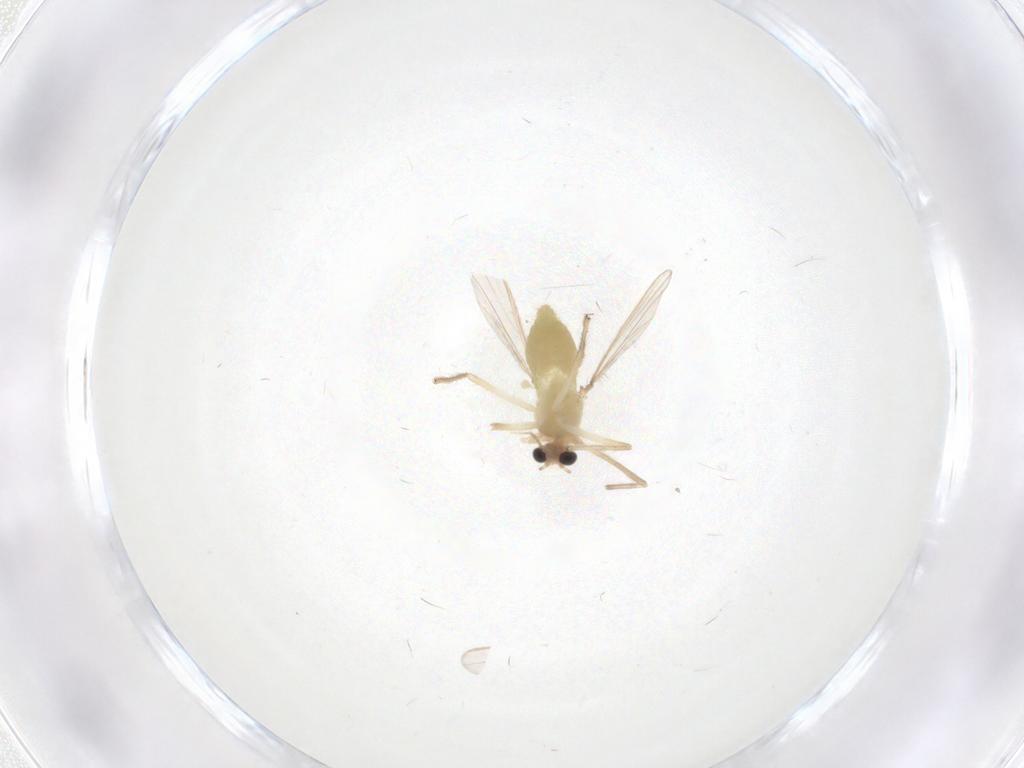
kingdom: Animalia
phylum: Arthropoda
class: Insecta
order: Diptera
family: Chironomidae
